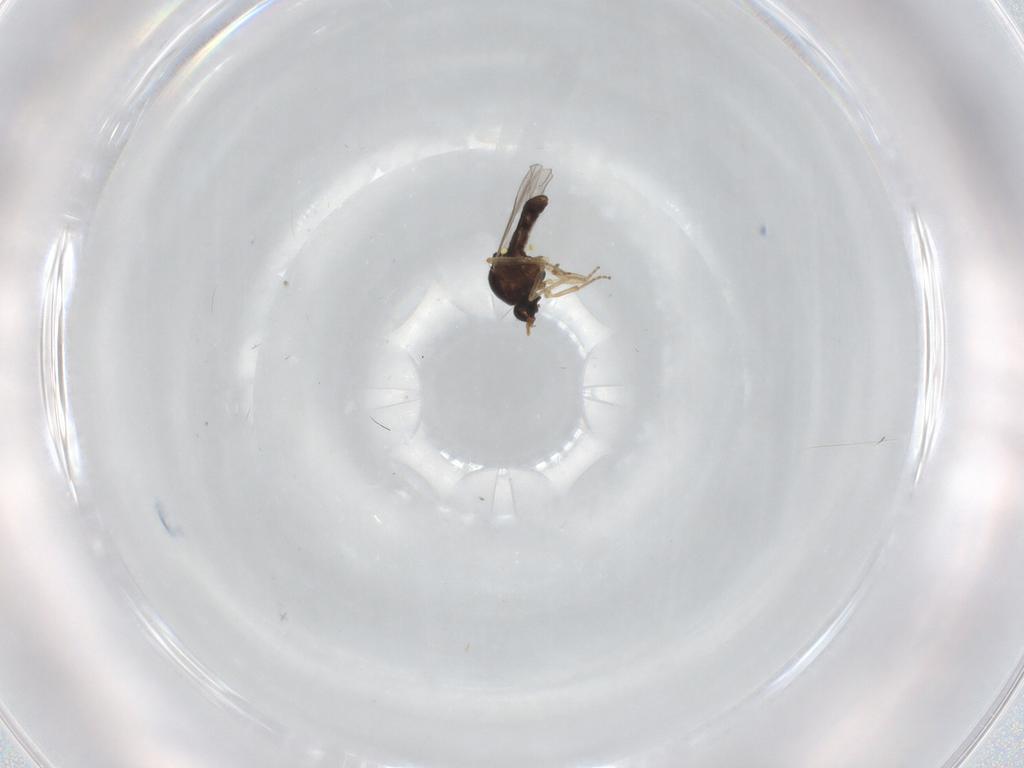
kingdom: Animalia
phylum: Arthropoda
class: Insecta
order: Diptera
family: Ceratopogonidae
